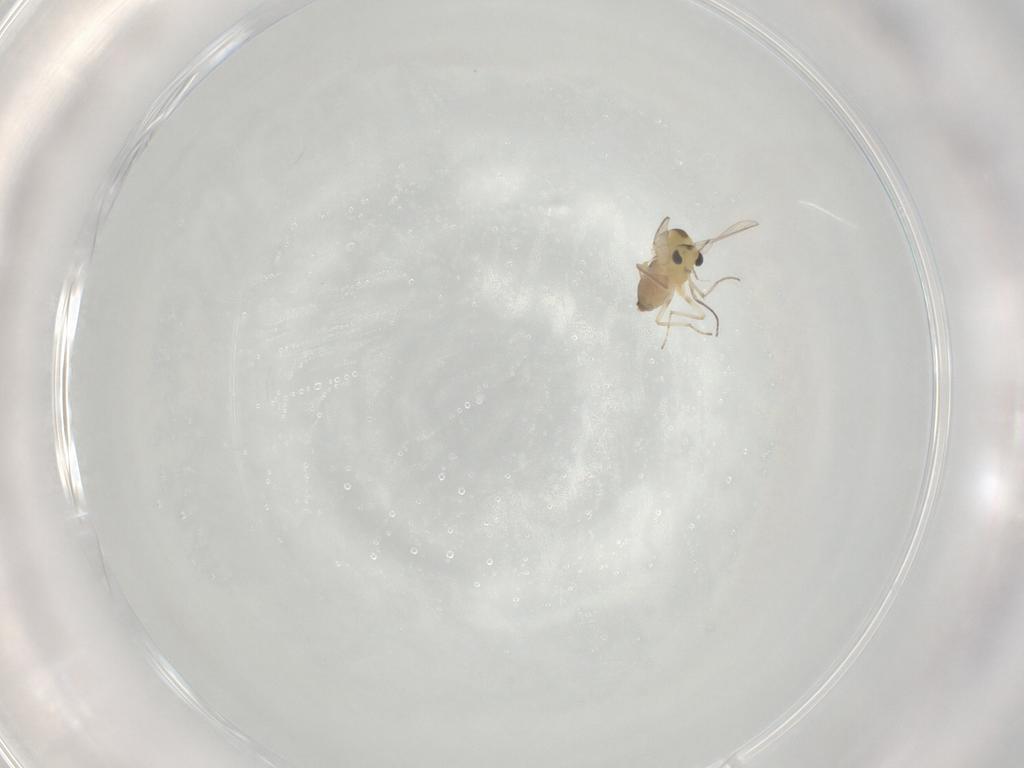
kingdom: Animalia
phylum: Arthropoda
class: Insecta
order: Diptera
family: Chironomidae
